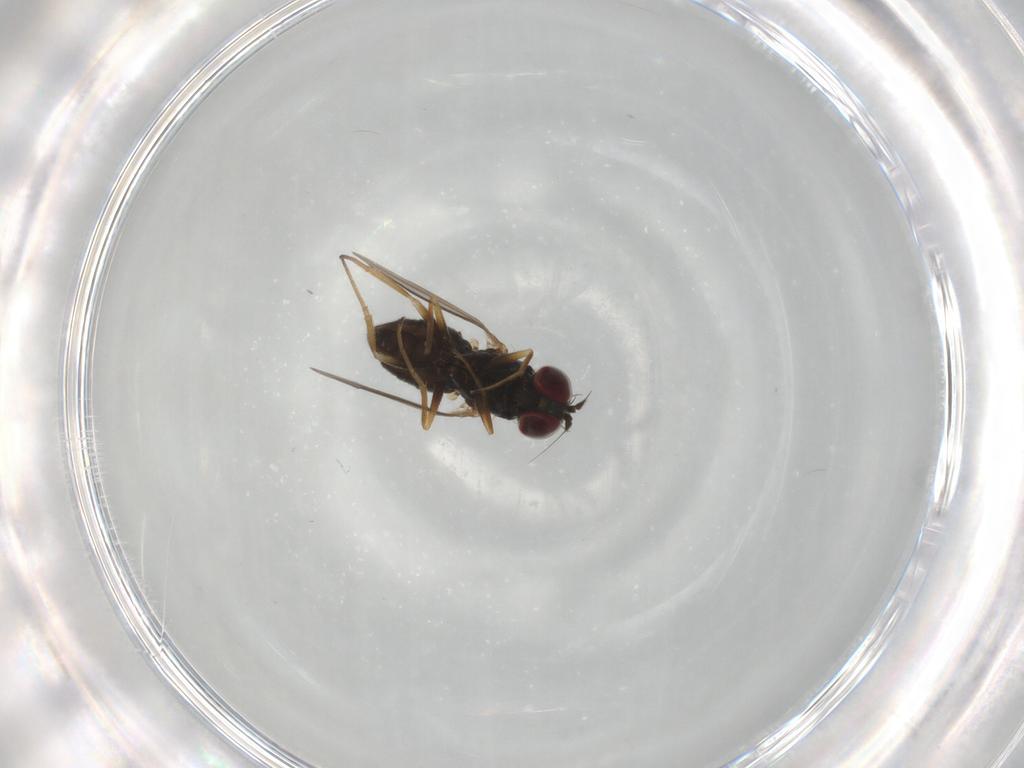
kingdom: Animalia
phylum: Arthropoda
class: Insecta
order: Diptera
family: Dolichopodidae
